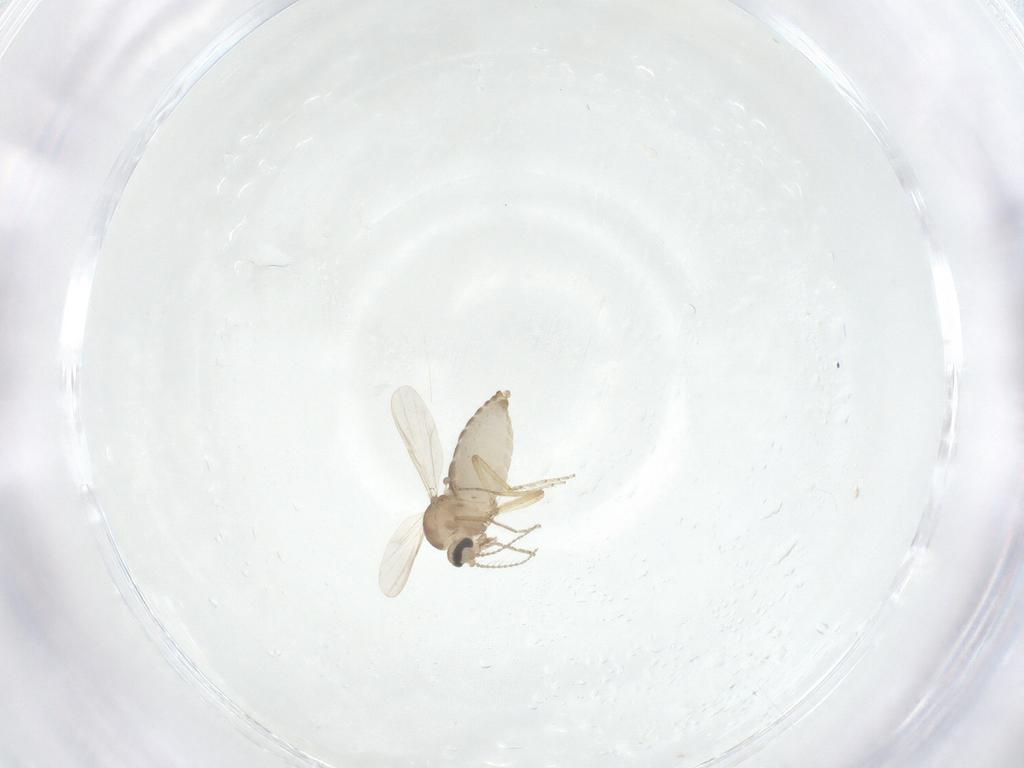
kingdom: Animalia
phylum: Arthropoda
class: Insecta
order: Diptera
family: Ceratopogonidae
